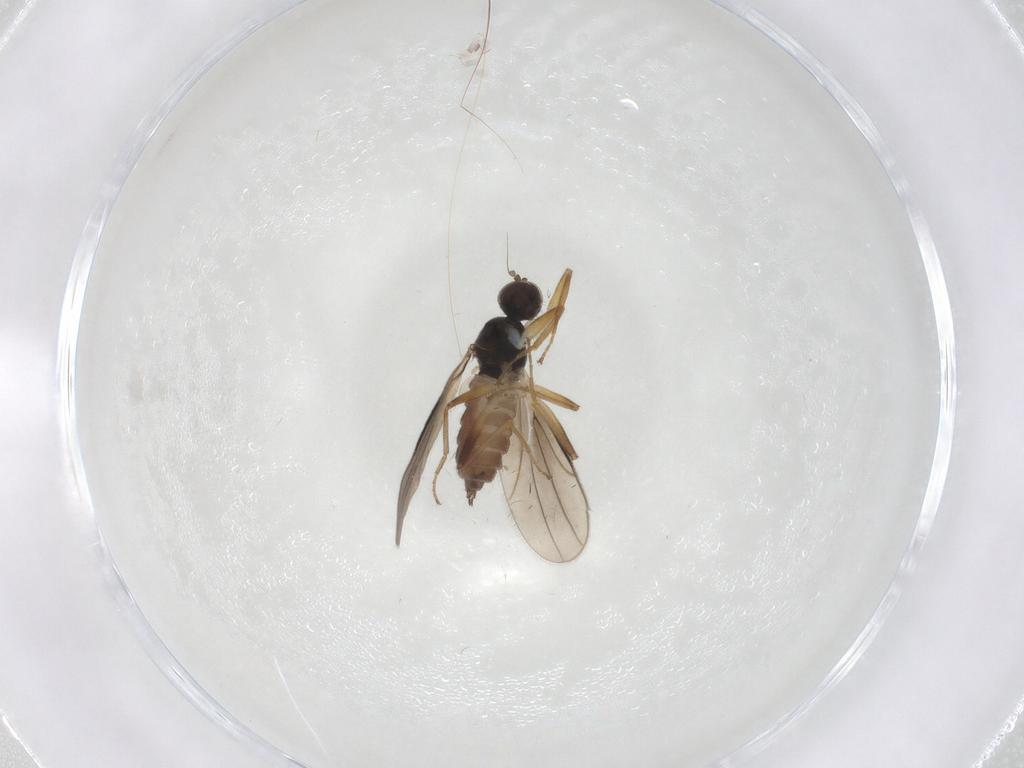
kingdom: Animalia
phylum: Arthropoda
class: Insecta
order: Diptera
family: Hybotidae
